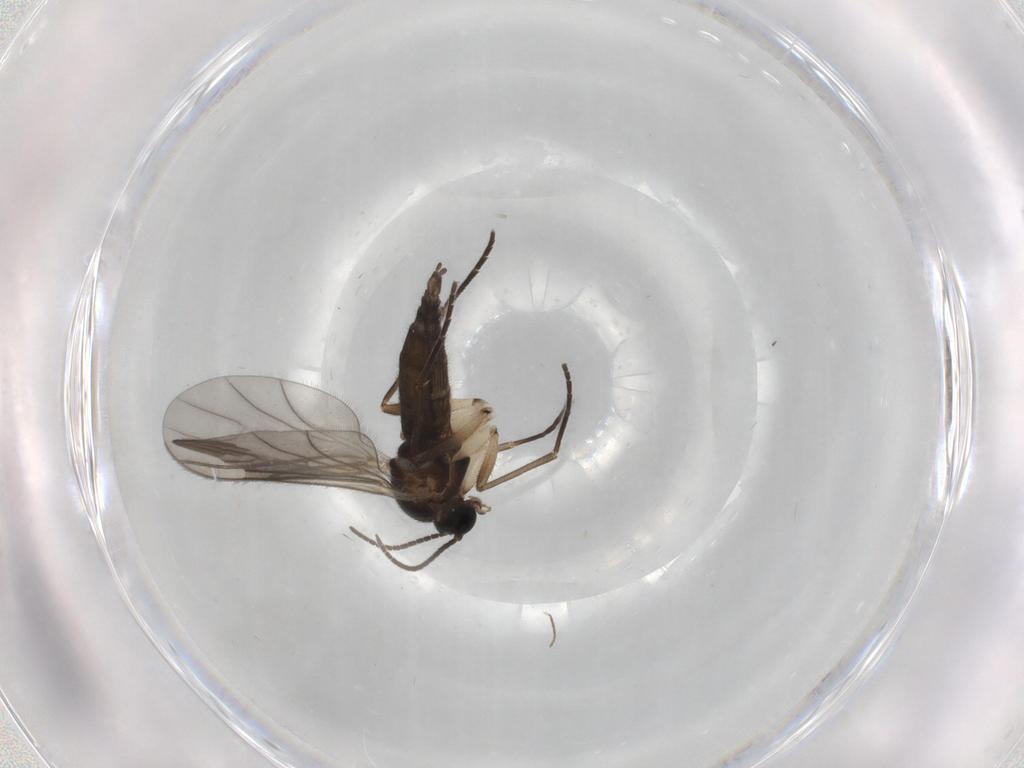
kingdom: Animalia
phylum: Arthropoda
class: Insecta
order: Diptera
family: Sciaridae
